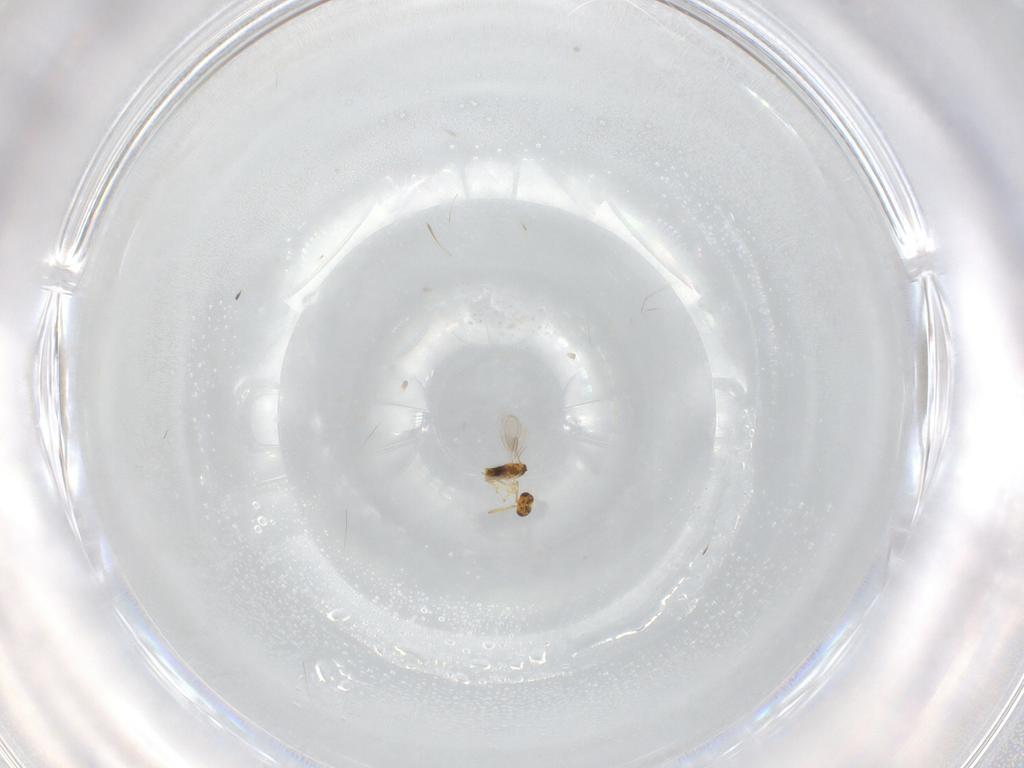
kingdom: Animalia
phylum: Arthropoda
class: Insecta
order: Hymenoptera
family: Aphelinidae
